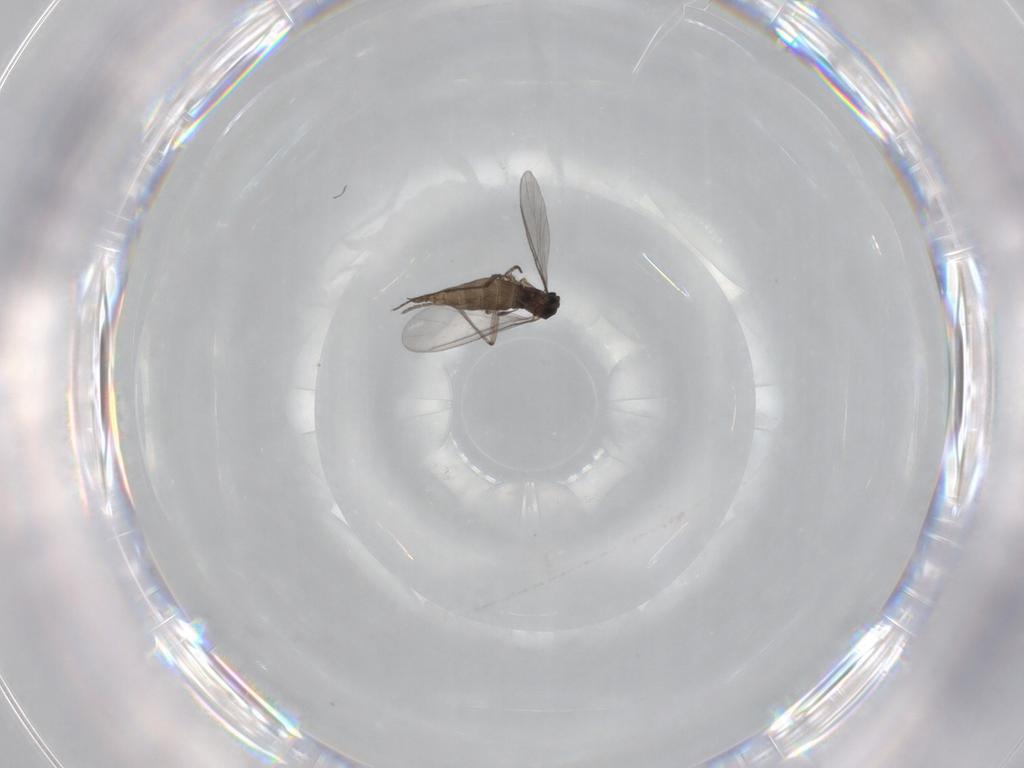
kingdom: Animalia
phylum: Arthropoda
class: Insecta
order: Diptera
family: Sciaridae
